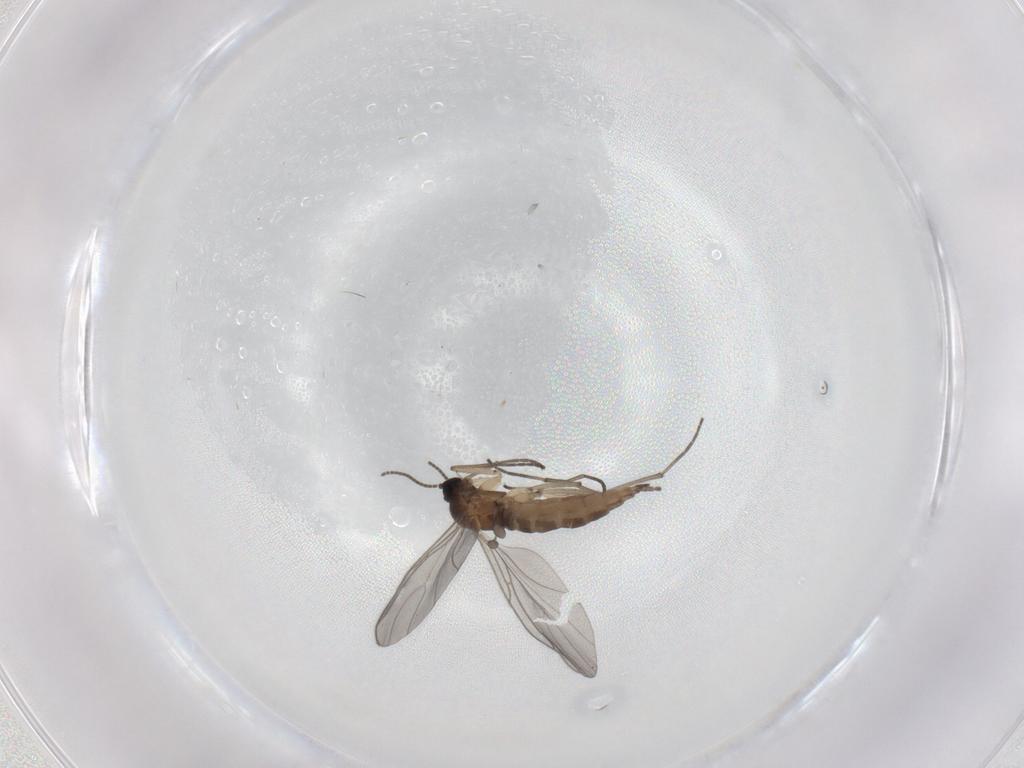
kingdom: Animalia
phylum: Arthropoda
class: Insecta
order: Diptera
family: Sciaridae
